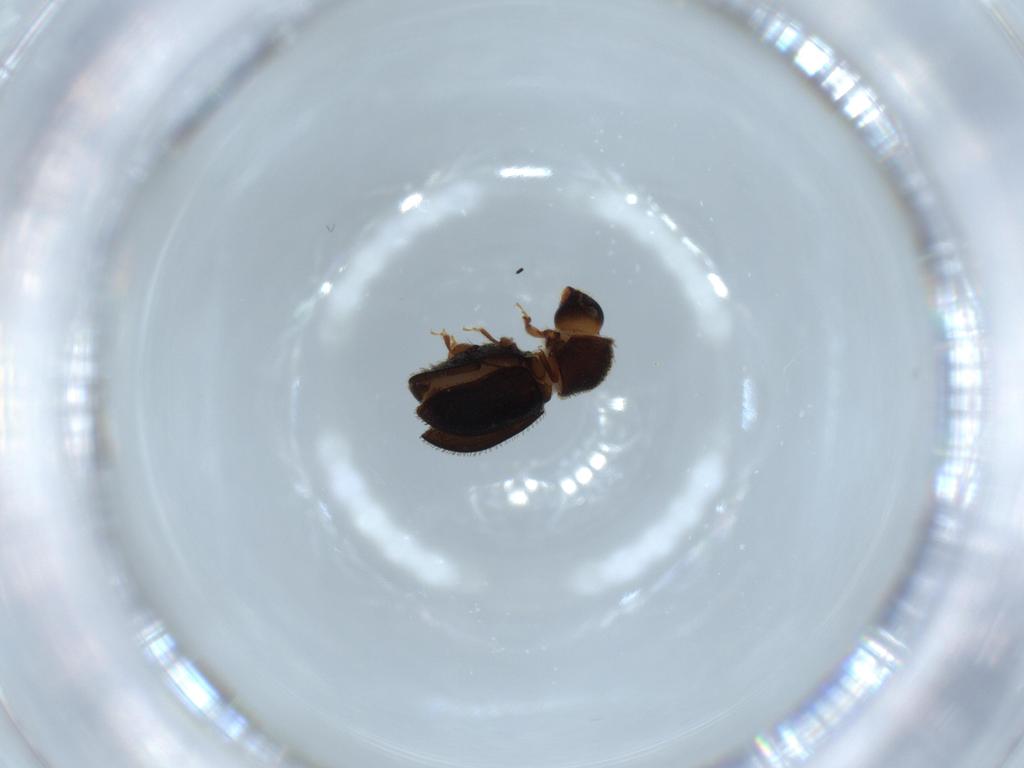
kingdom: Animalia
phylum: Arthropoda
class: Insecta
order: Coleoptera
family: Curculionidae
